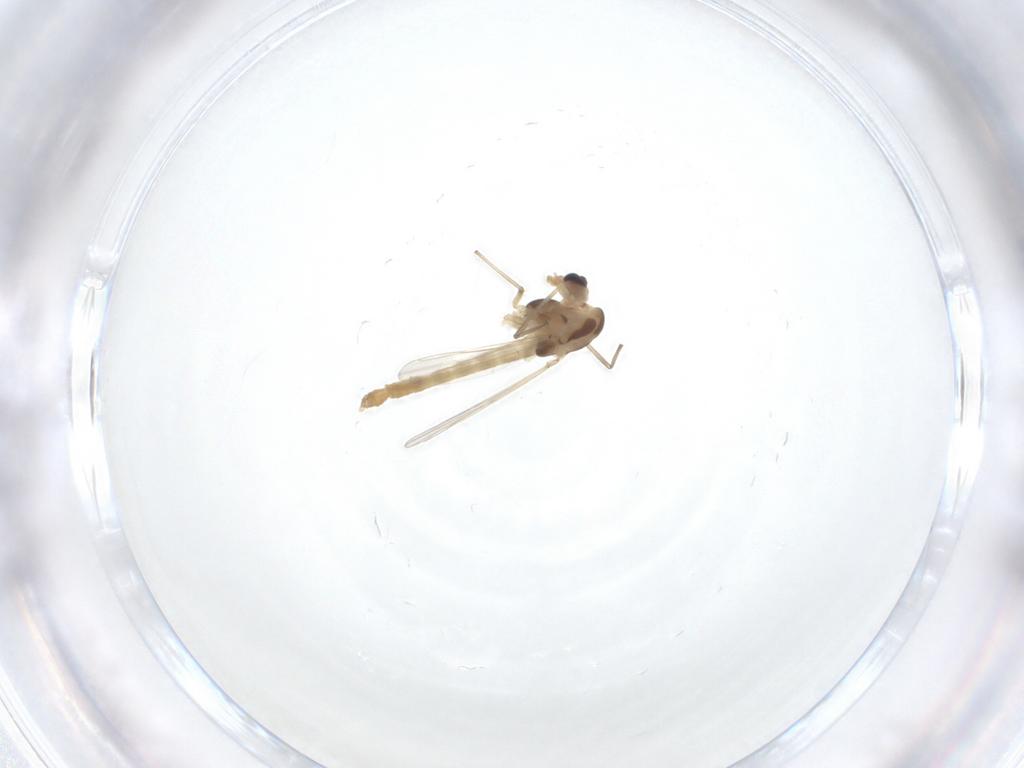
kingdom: Animalia
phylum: Arthropoda
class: Insecta
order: Diptera
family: Chironomidae
